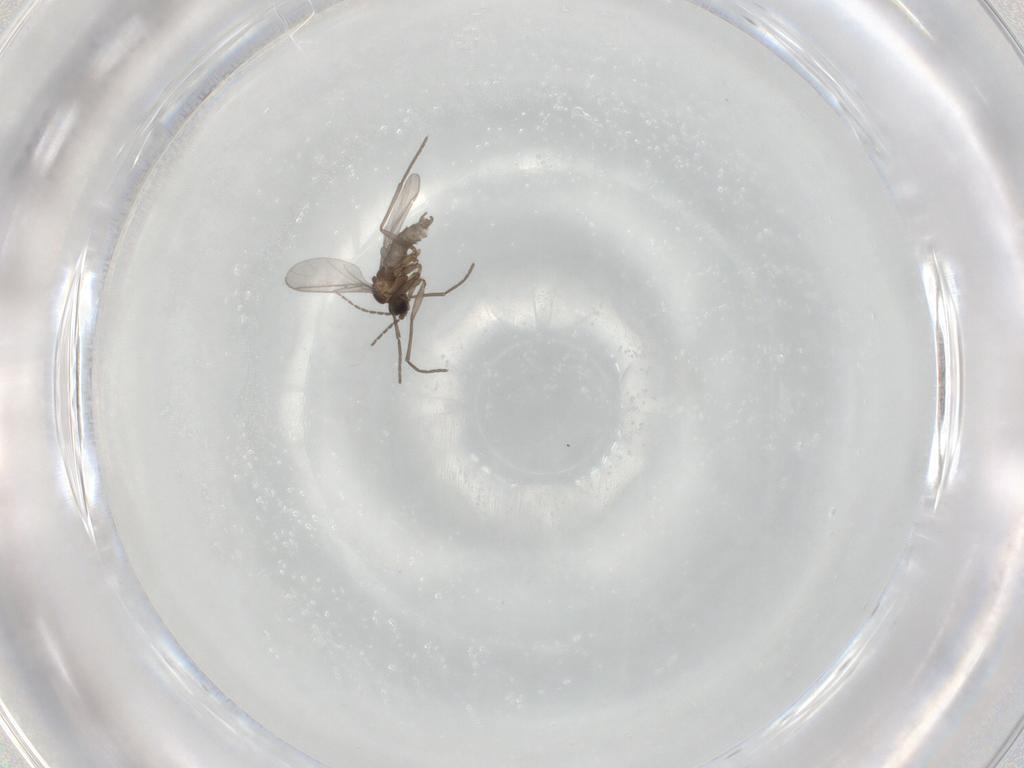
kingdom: Animalia
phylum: Arthropoda
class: Insecta
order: Diptera
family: Sciaridae
